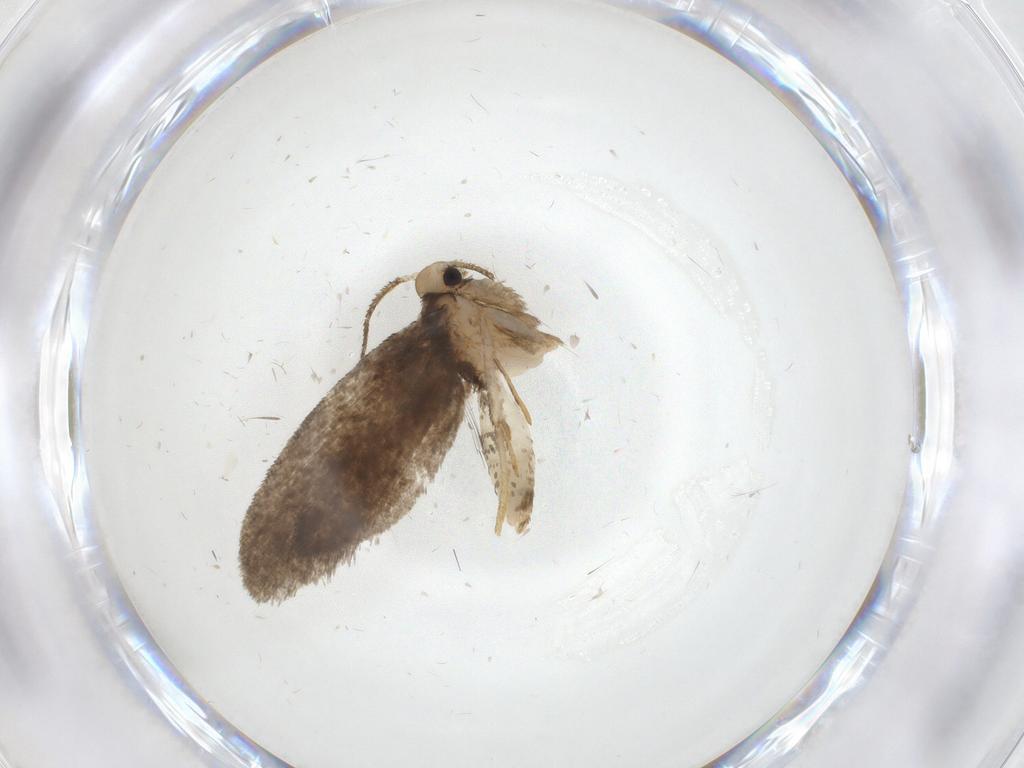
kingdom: Animalia
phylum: Arthropoda
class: Insecta
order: Lepidoptera
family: Psychidae
